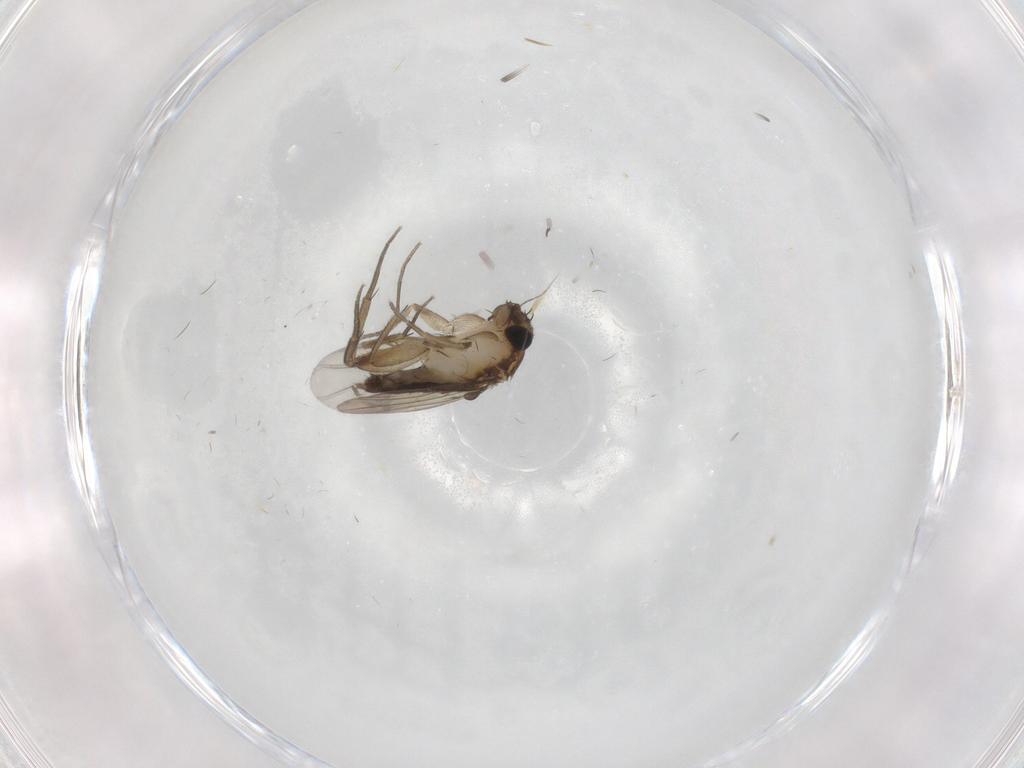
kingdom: Animalia
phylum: Arthropoda
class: Insecta
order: Diptera
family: Phoridae
